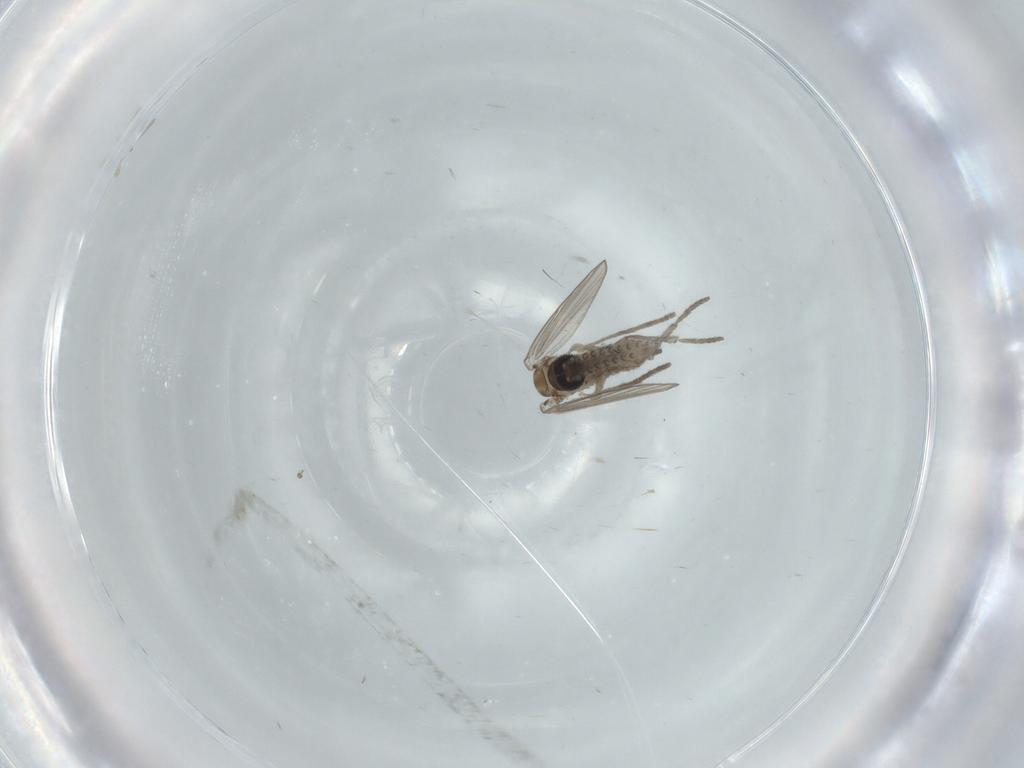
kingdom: Animalia
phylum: Arthropoda
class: Insecta
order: Diptera
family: Psychodidae
